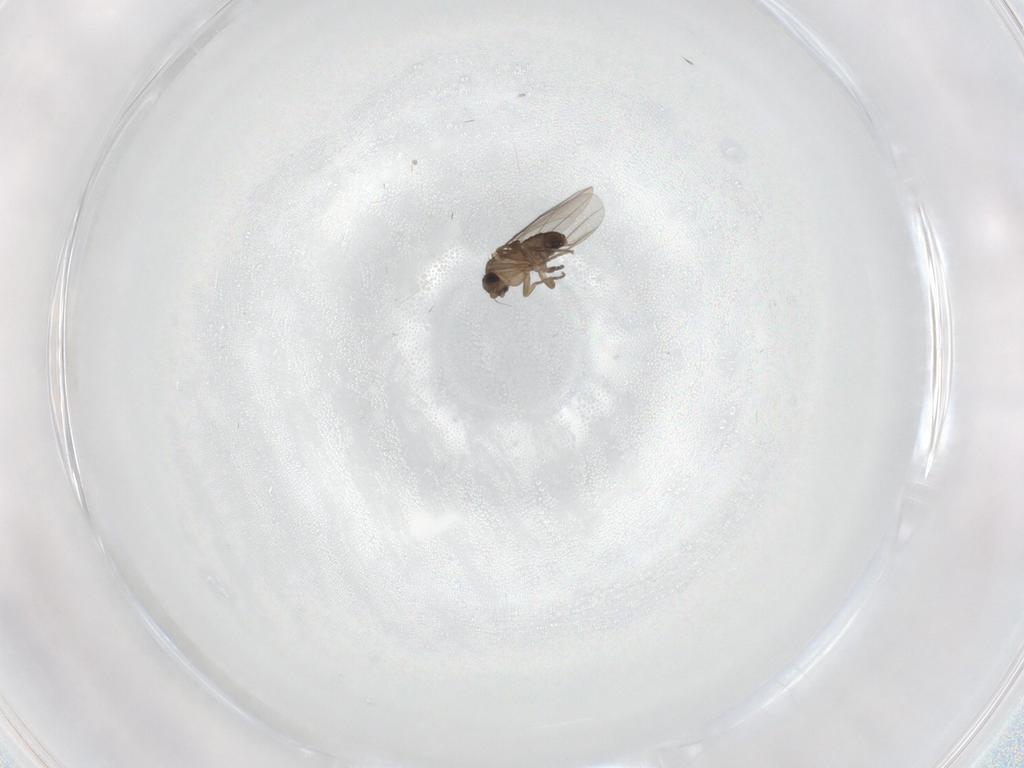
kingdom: Animalia
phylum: Arthropoda
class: Insecta
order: Diptera
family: Phoridae
